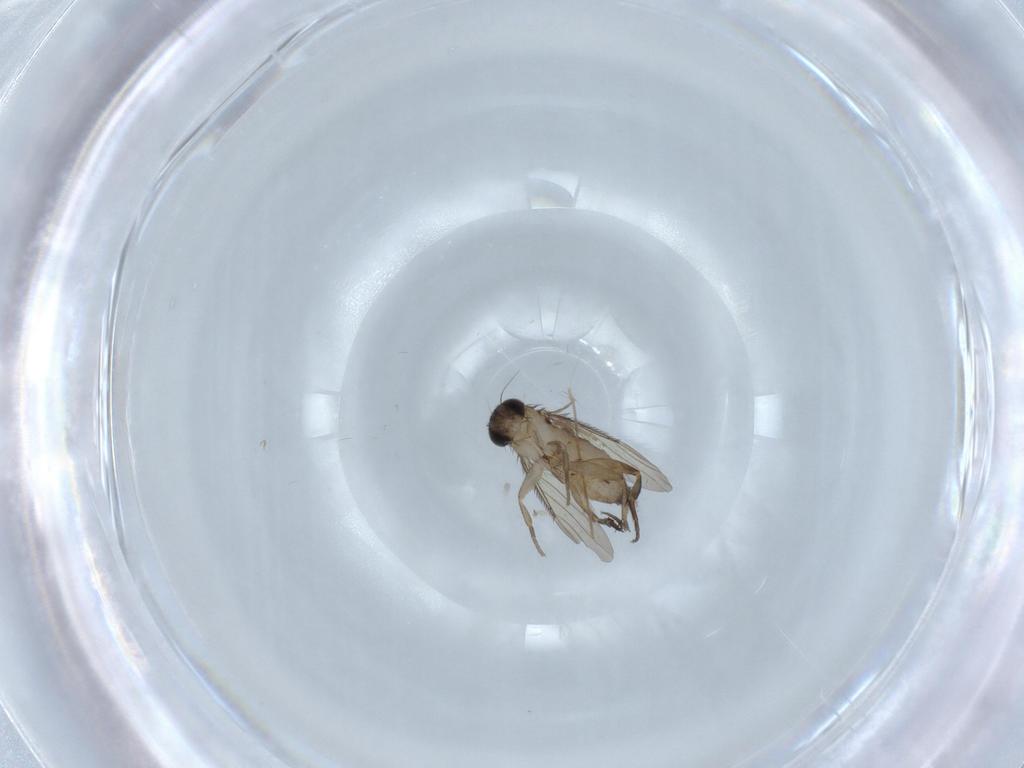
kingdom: Animalia
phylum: Arthropoda
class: Insecta
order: Diptera
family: Phoridae
